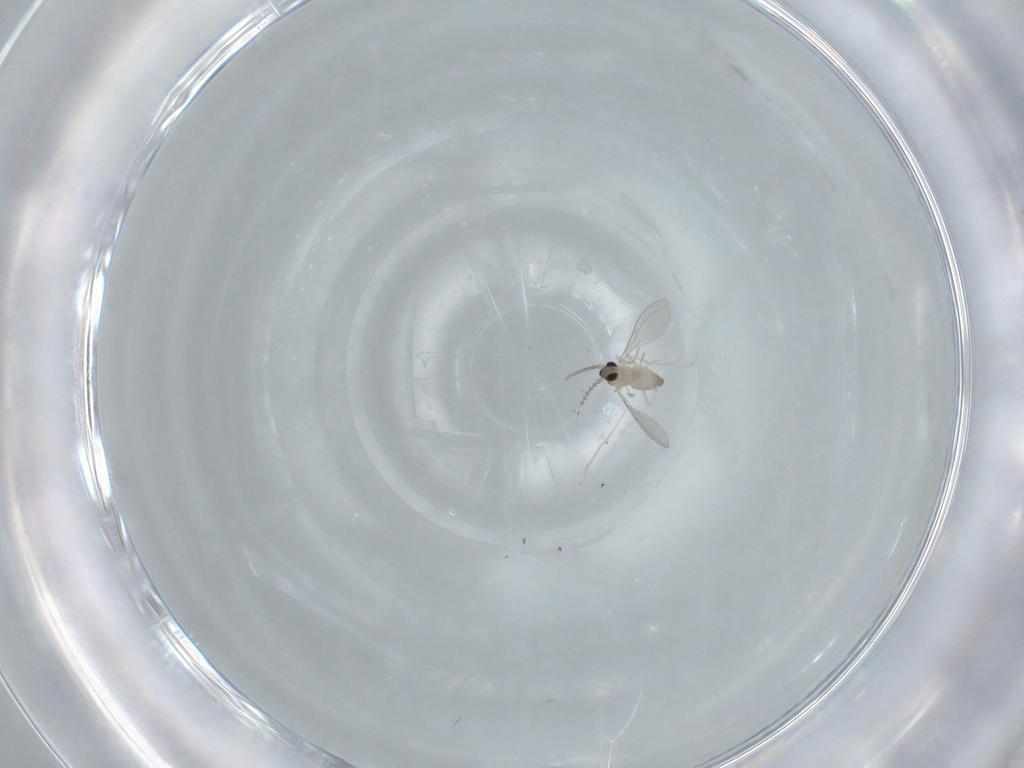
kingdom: Animalia
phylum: Arthropoda
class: Insecta
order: Diptera
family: Cecidomyiidae
